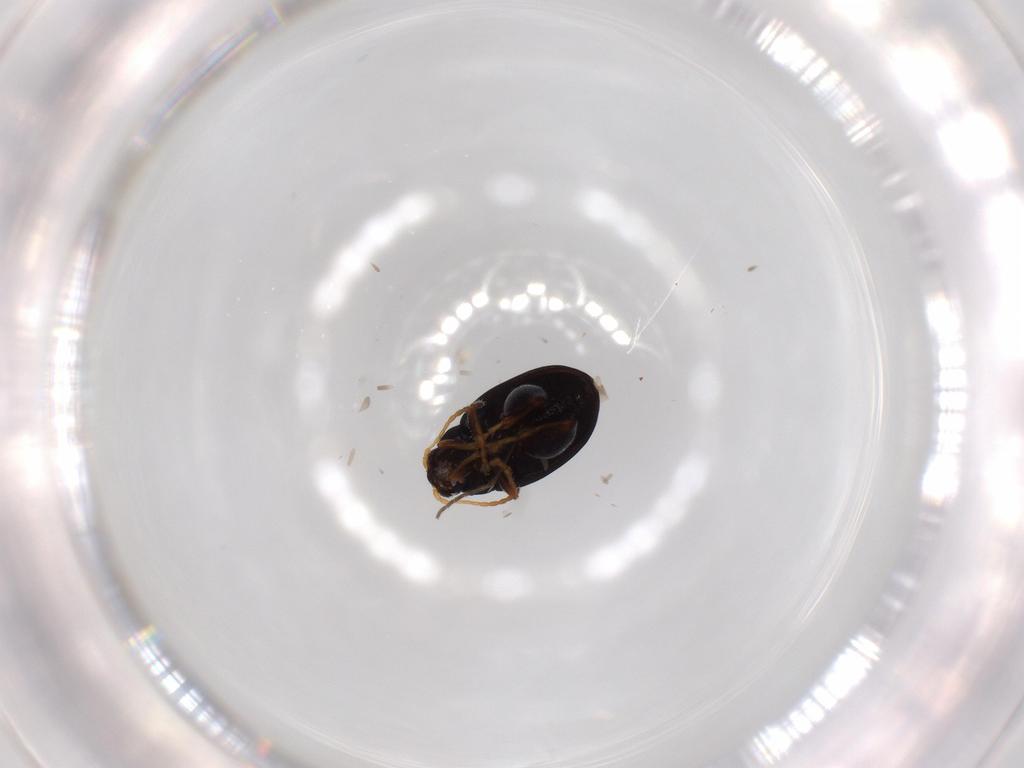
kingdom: Animalia
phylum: Arthropoda
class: Insecta
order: Coleoptera
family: Chrysomelidae
